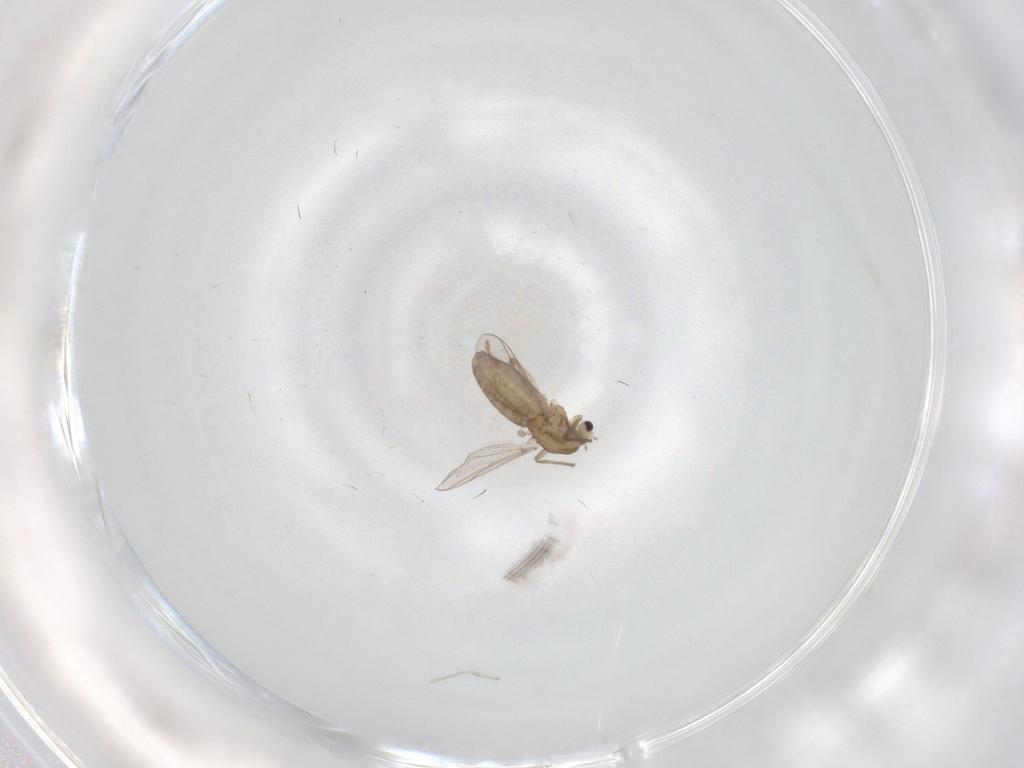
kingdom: Animalia
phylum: Arthropoda
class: Insecta
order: Diptera
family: Chironomidae
